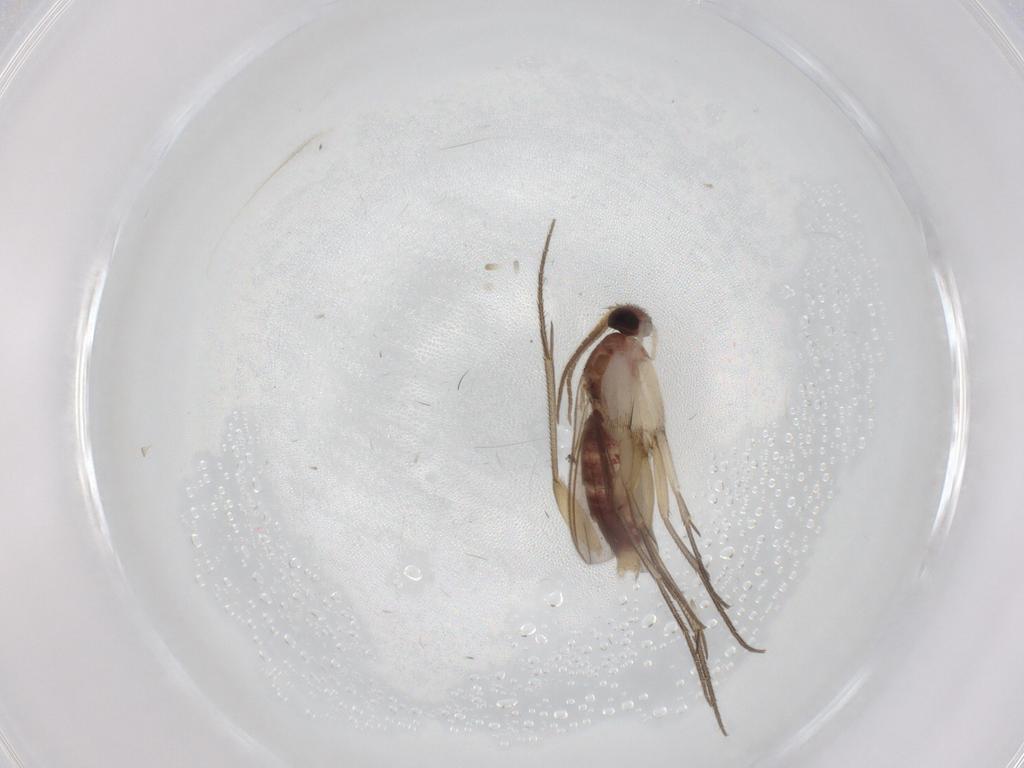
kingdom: Animalia
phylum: Arthropoda
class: Insecta
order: Diptera
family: Mycetophilidae
